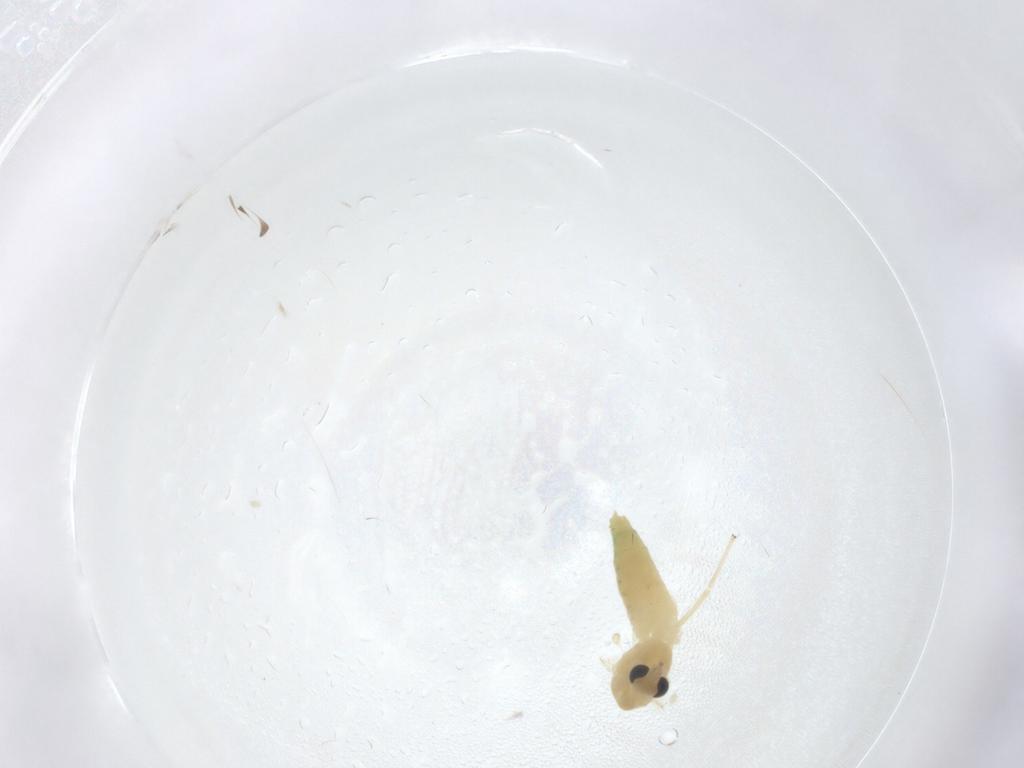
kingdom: Animalia
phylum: Arthropoda
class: Insecta
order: Diptera
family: Chironomidae
